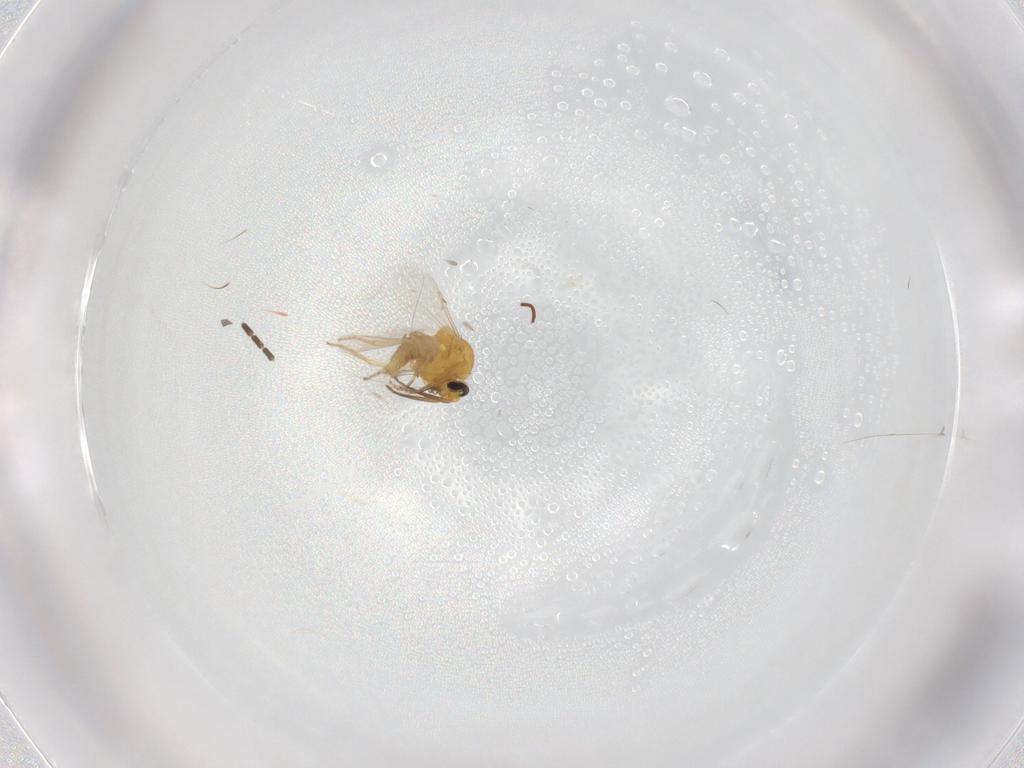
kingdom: Animalia
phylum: Arthropoda
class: Insecta
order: Diptera
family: Ceratopogonidae
